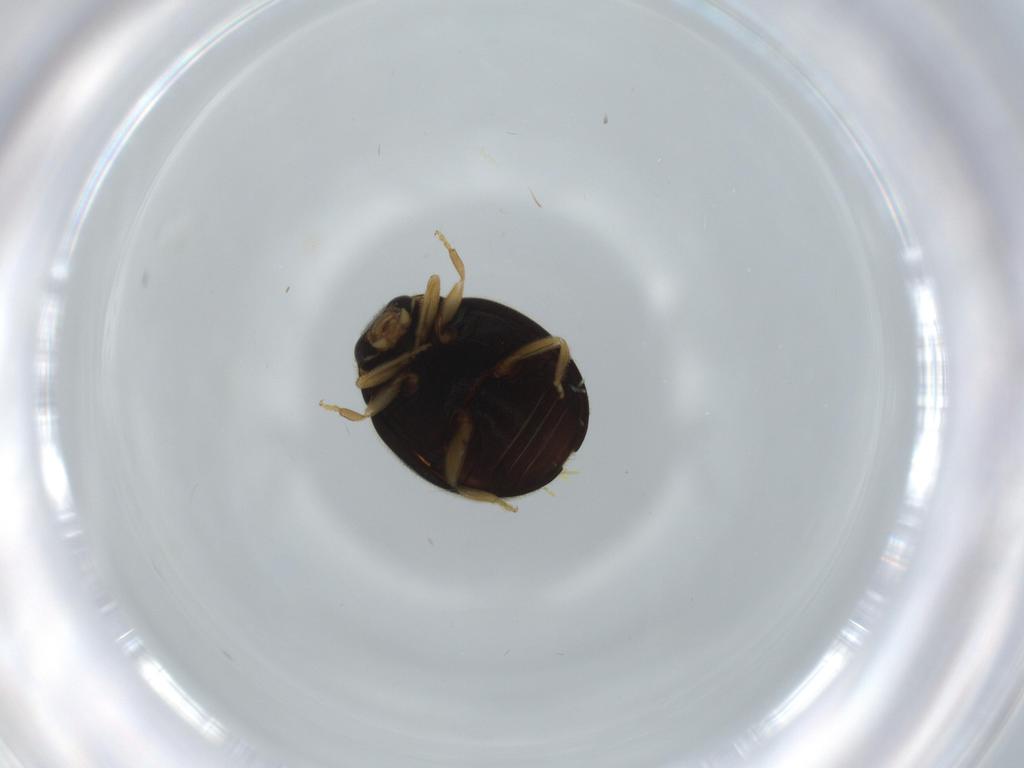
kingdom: Animalia
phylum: Arthropoda
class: Insecta
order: Coleoptera
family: Coccinellidae
